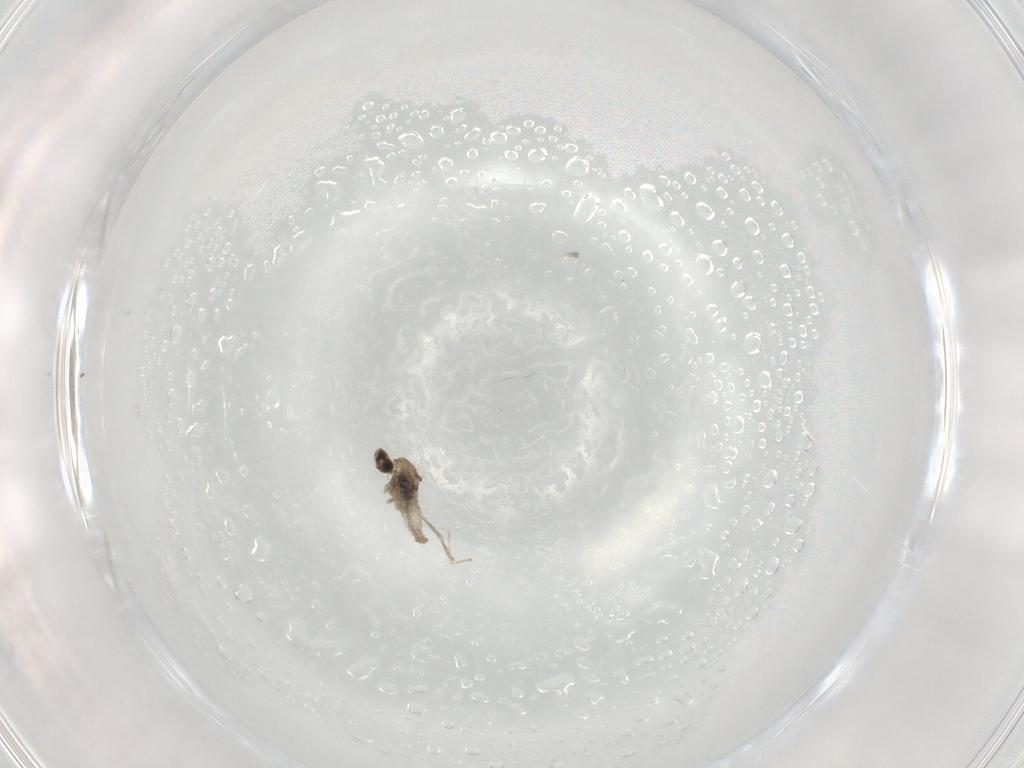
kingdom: Animalia
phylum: Arthropoda
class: Insecta
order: Diptera
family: Cecidomyiidae
